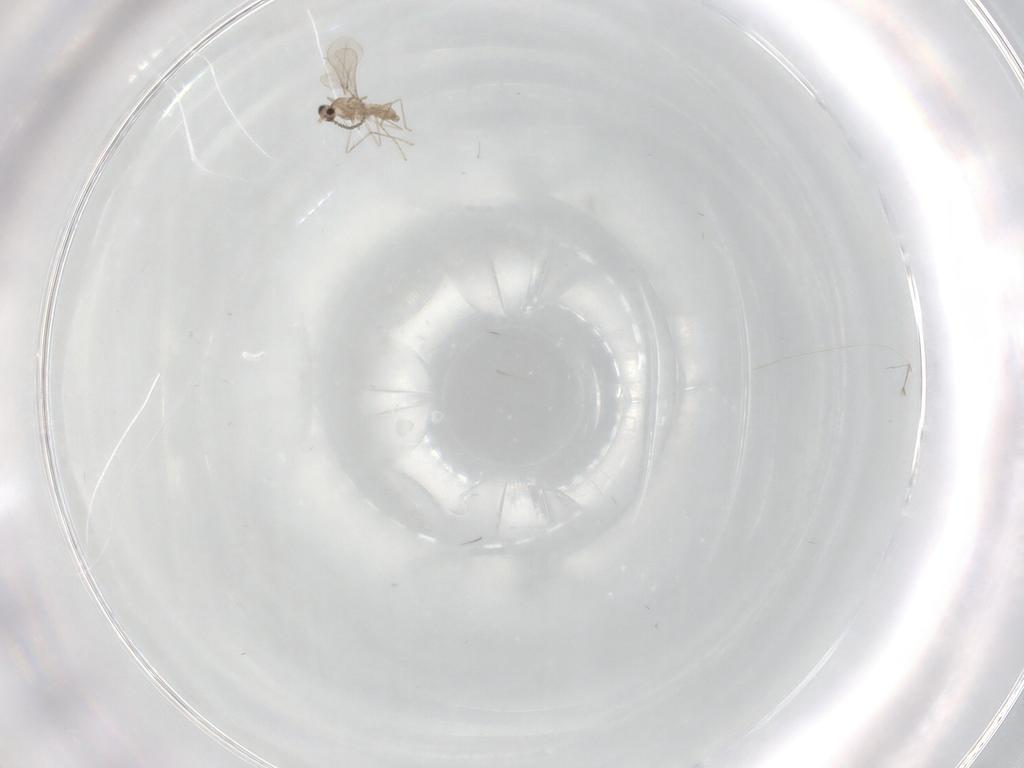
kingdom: Animalia
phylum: Arthropoda
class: Insecta
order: Diptera
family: Cecidomyiidae
